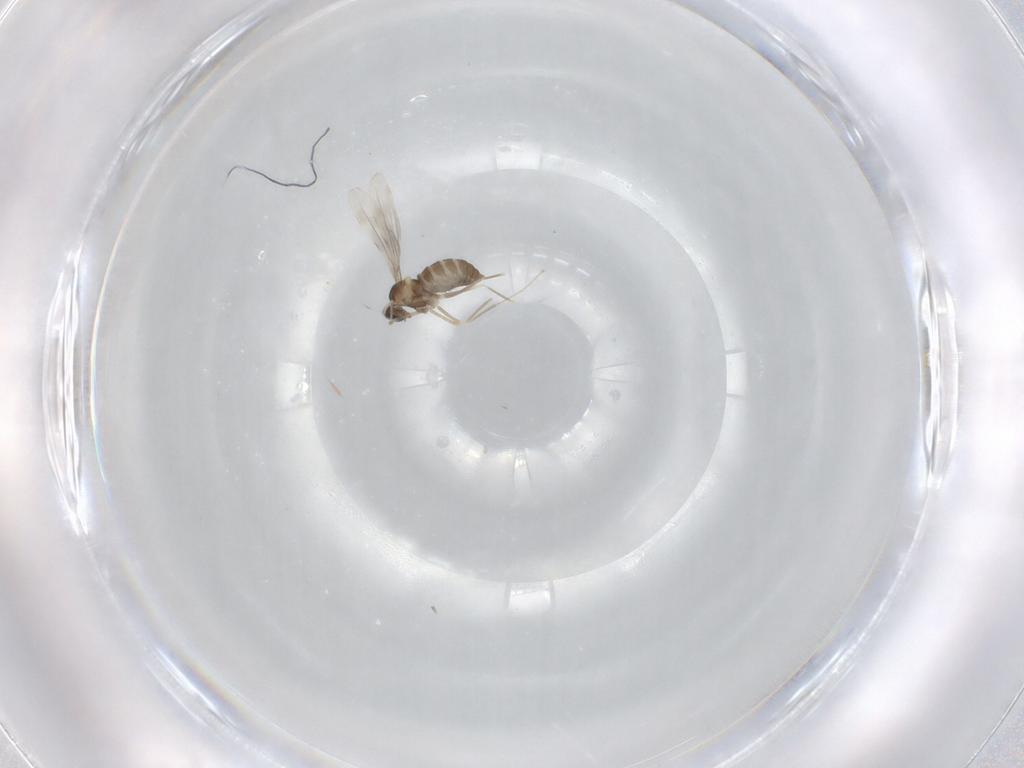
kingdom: Animalia
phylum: Arthropoda
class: Insecta
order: Diptera
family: Cecidomyiidae
